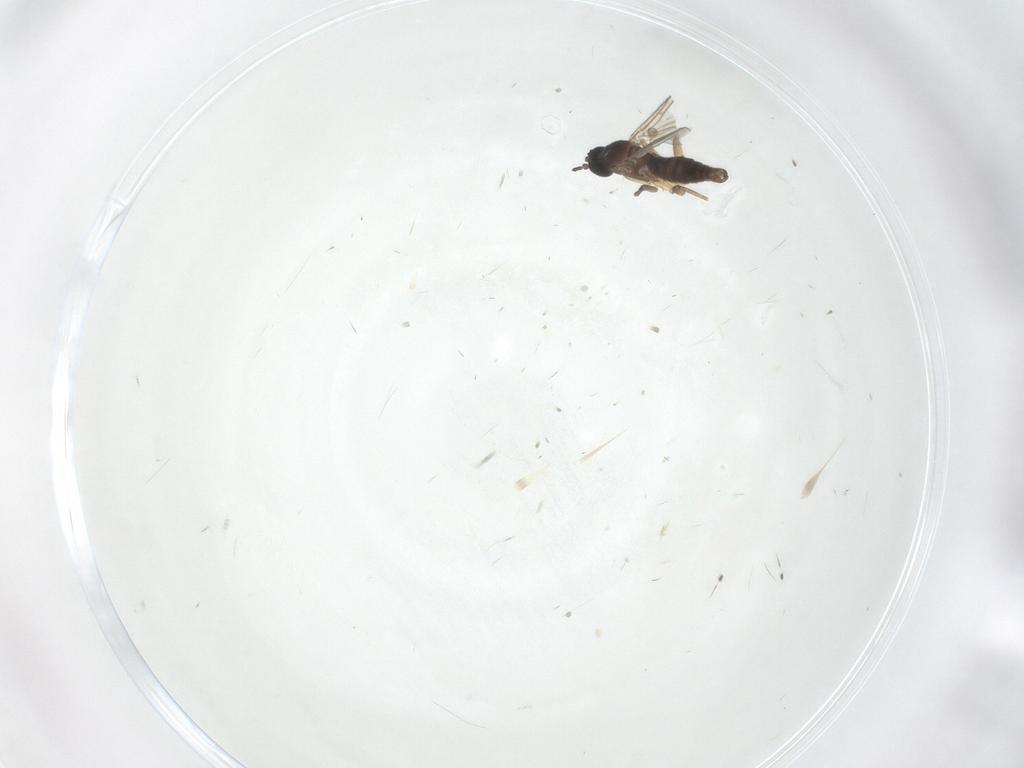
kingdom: Animalia
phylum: Arthropoda
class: Insecta
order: Hemiptera
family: Cixiidae
